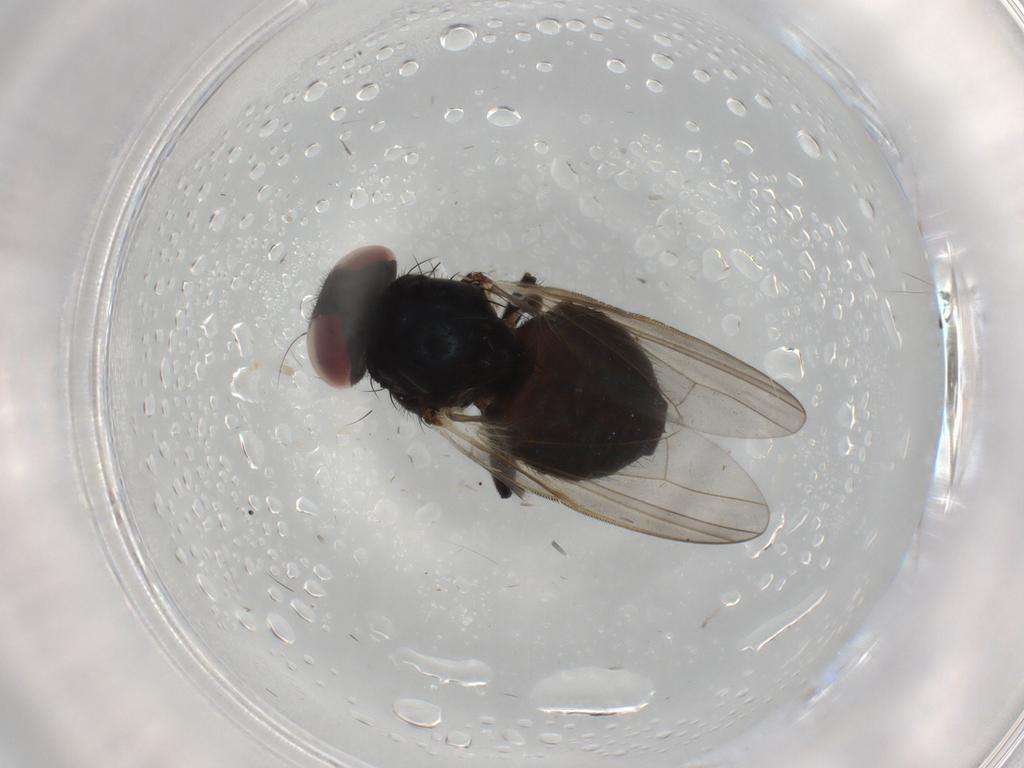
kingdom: Animalia
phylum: Arthropoda
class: Insecta
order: Diptera
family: Lonchaeidae
